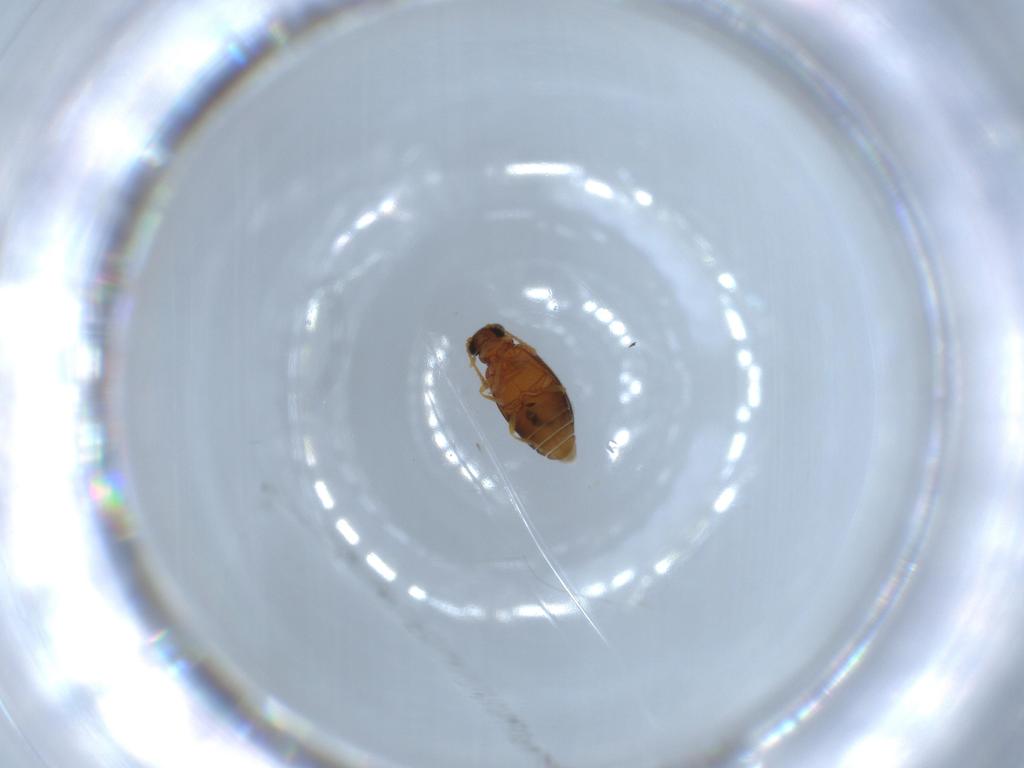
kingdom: Animalia
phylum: Arthropoda
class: Insecta
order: Coleoptera
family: Aderidae
